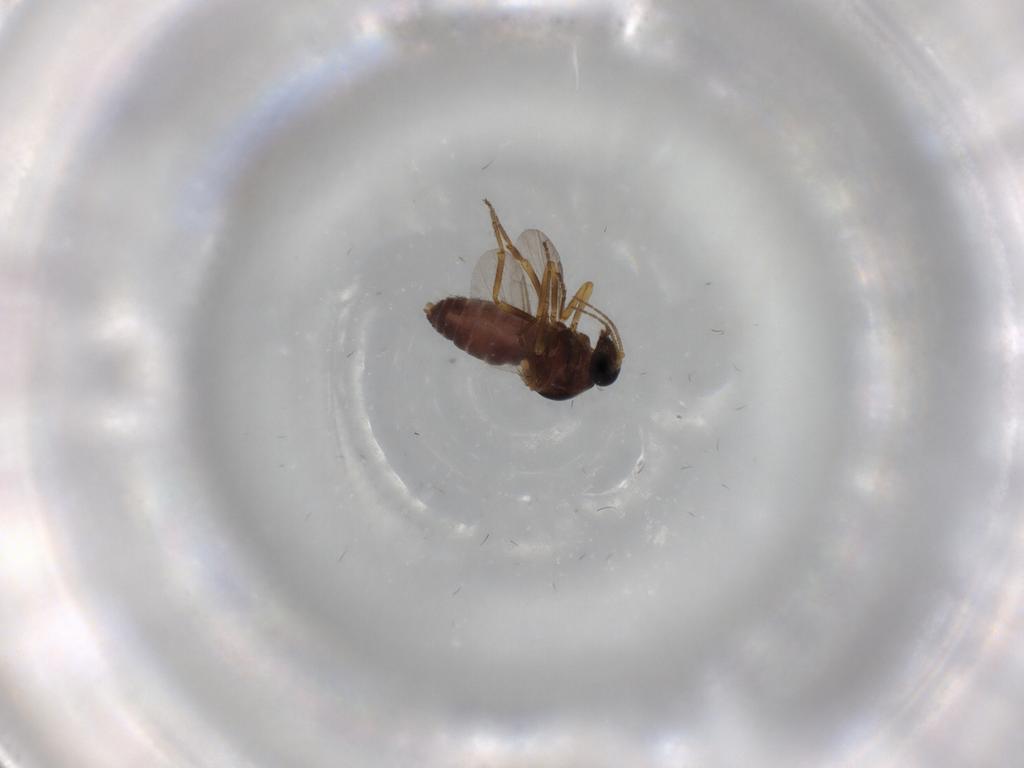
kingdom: Animalia
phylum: Arthropoda
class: Insecta
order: Diptera
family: Ceratopogonidae
